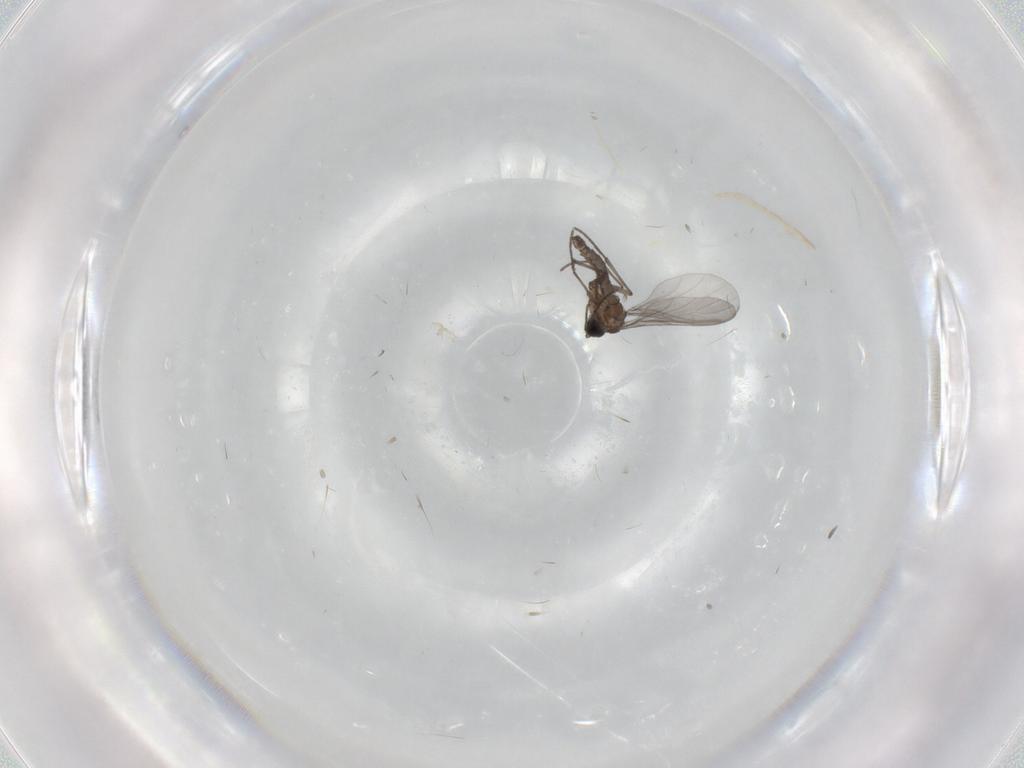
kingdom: Animalia
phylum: Arthropoda
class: Insecta
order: Diptera
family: Sciaridae
